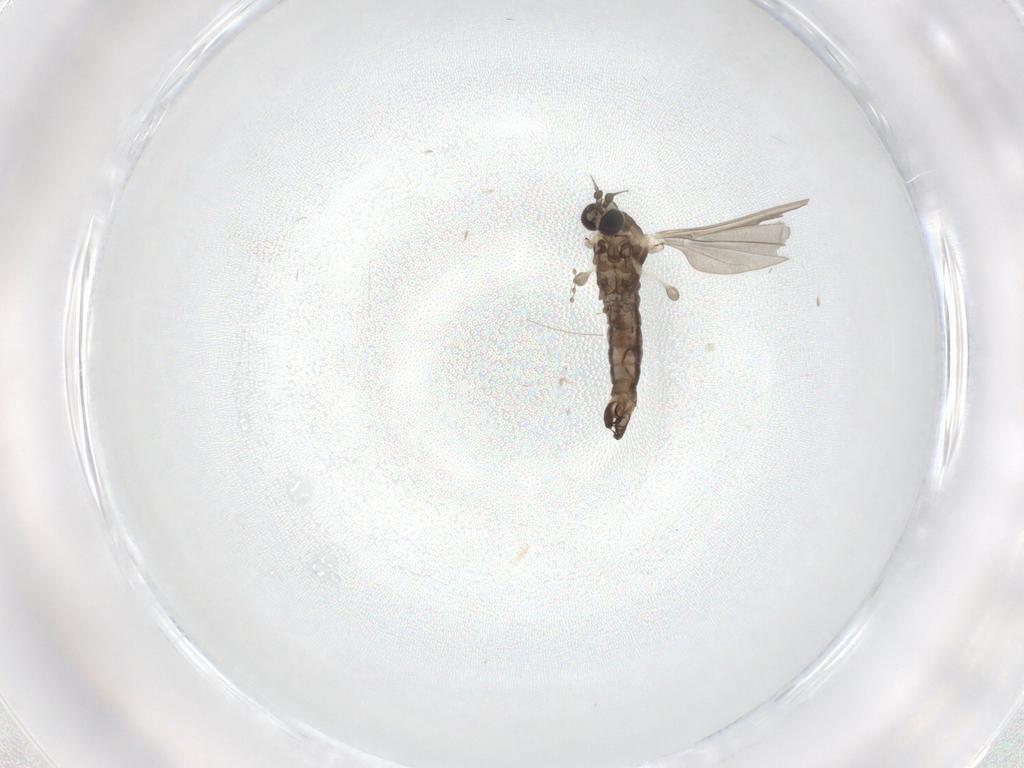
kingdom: Animalia
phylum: Arthropoda
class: Insecta
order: Diptera
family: Limoniidae
